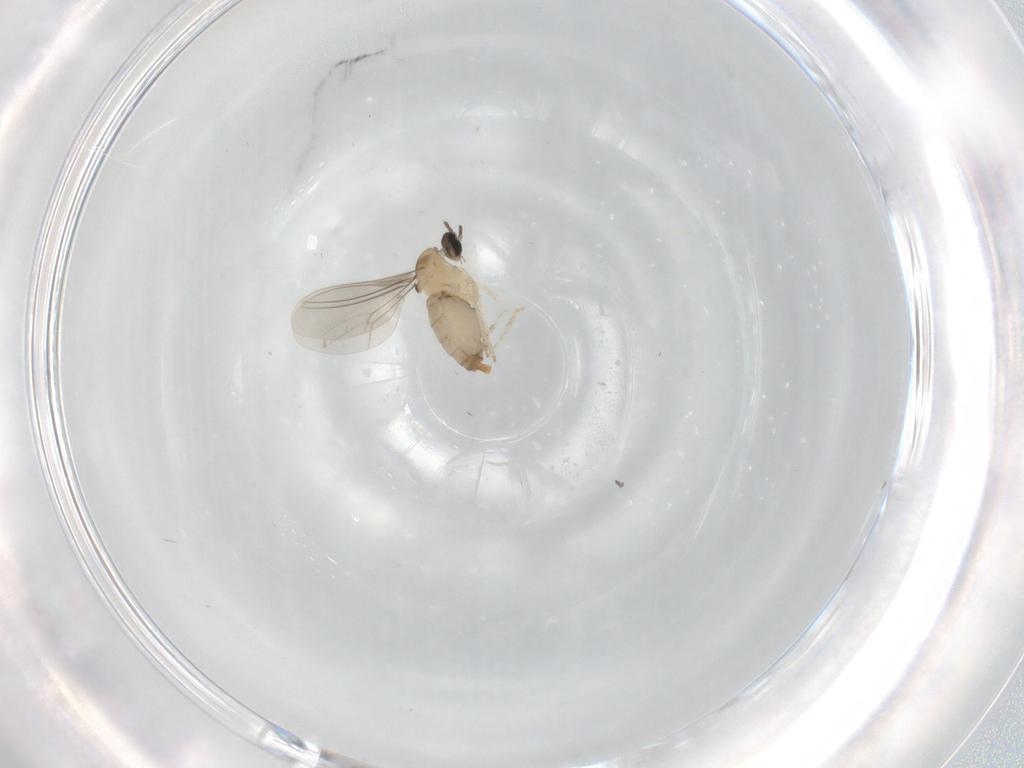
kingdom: Animalia
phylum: Arthropoda
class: Insecta
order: Diptera
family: Cecidomyiidae
